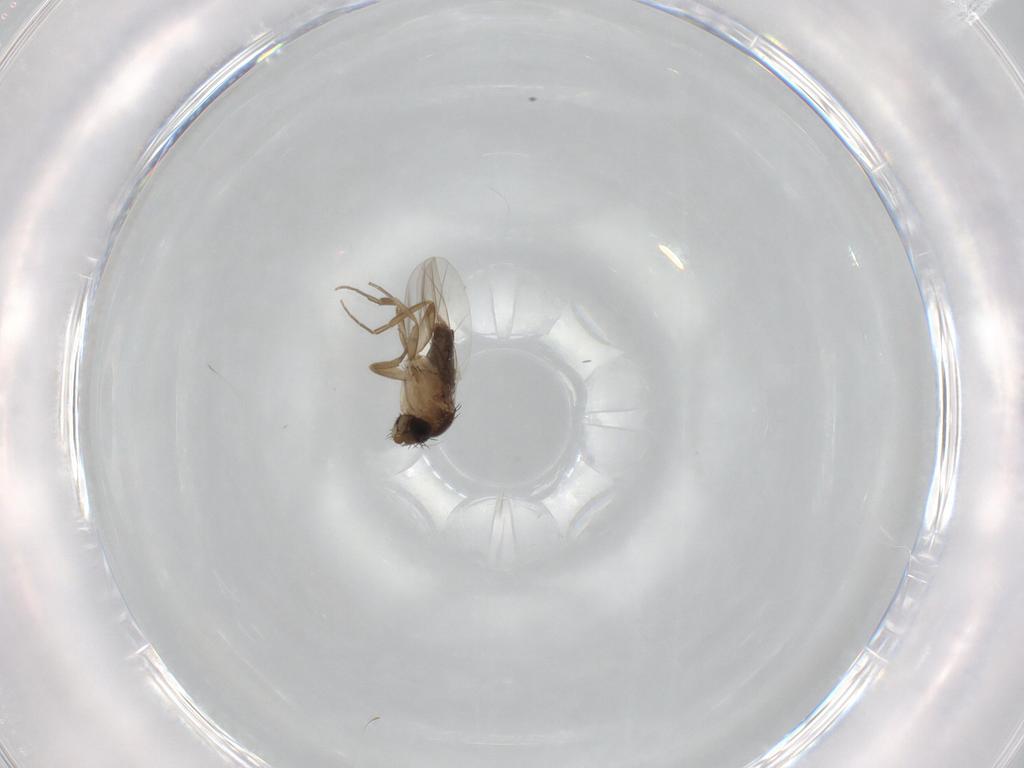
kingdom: Animalia
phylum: Arthropoda
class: Insecta
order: Diptera
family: Phoridae
